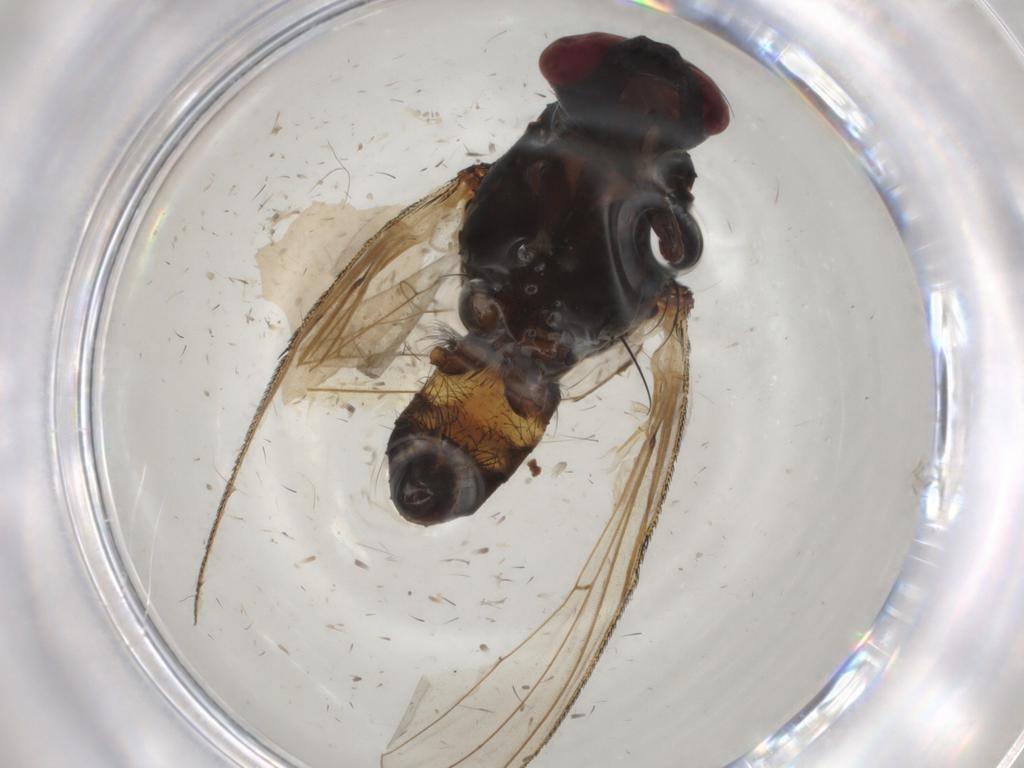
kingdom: Animalia
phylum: Arthropoda
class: Insecta
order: Diptera
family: Anthomyiidae
